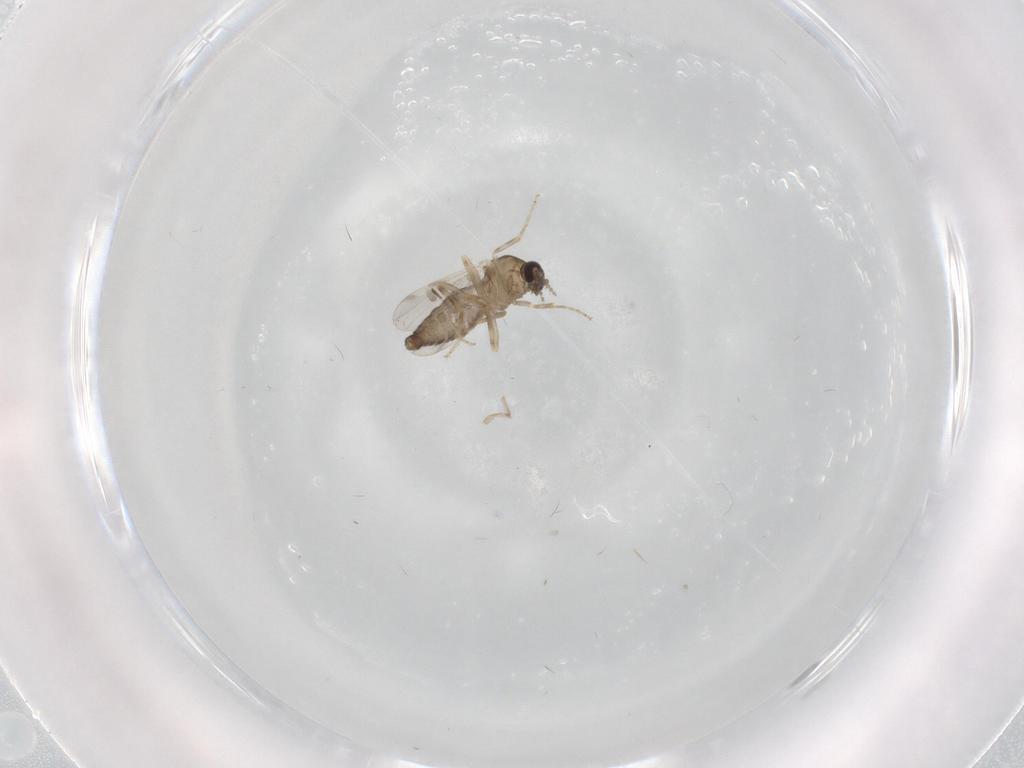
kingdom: Animalia
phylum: Arthropoda
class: Insecta
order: Diptera
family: Ceratopogonidae
